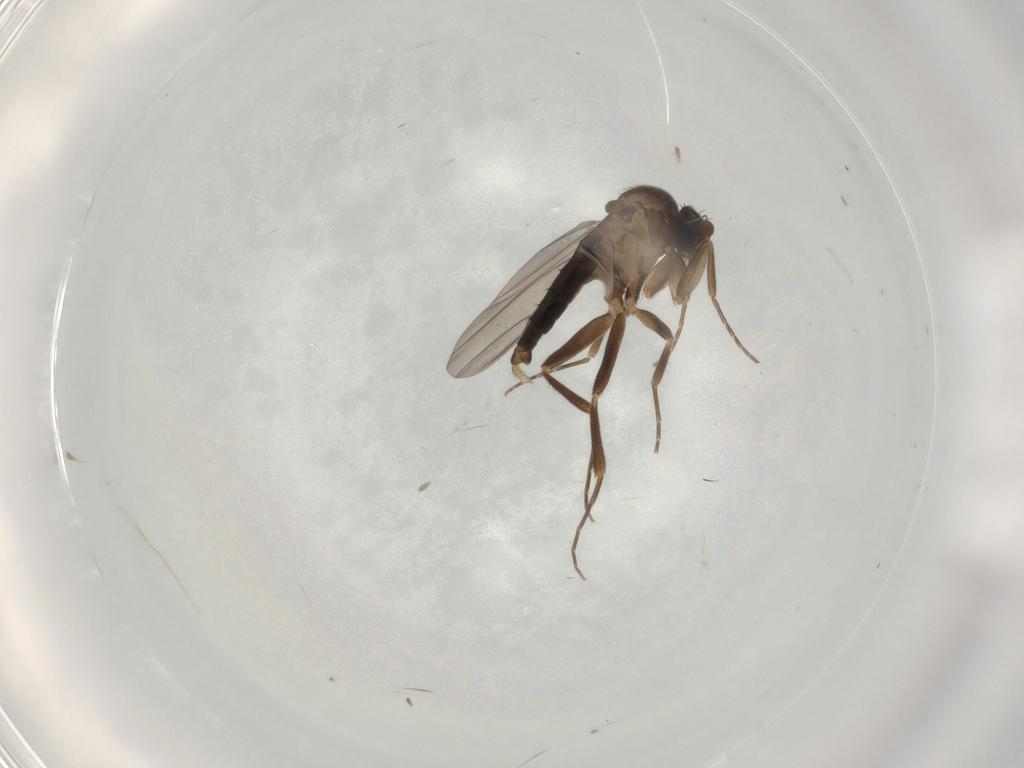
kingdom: Animalia
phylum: Arthropoda
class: Insecta
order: Diptera
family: Phoridae
